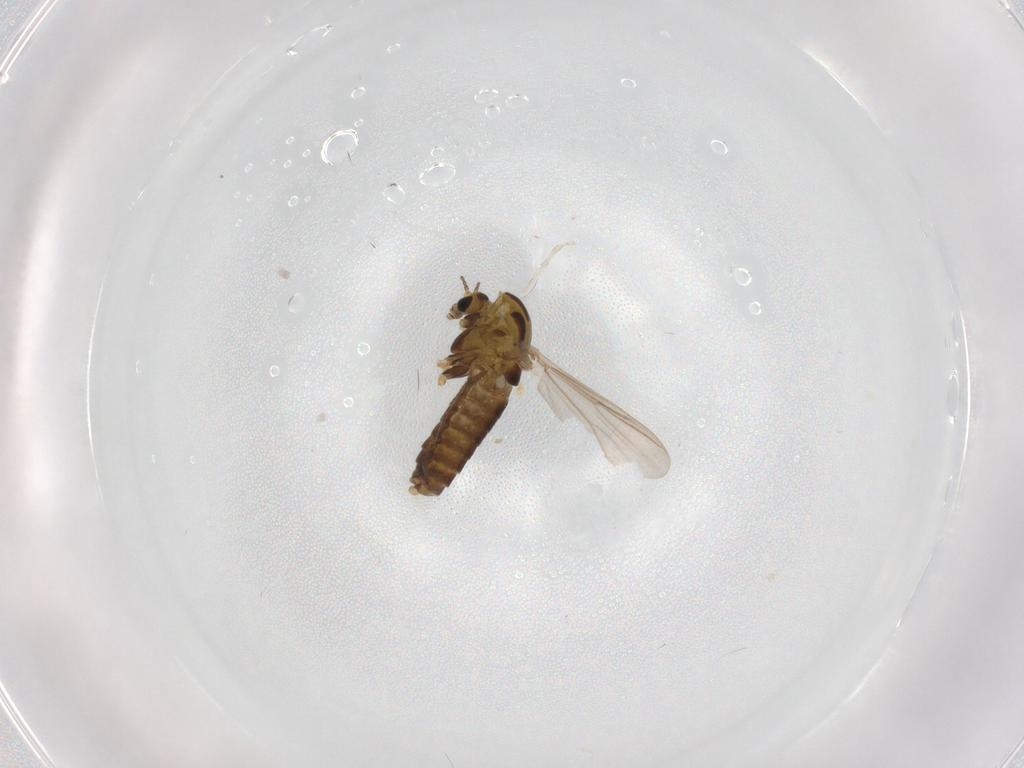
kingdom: Animalia
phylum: Arthropoda
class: Insecta
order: Diptera
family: Chironomidae
